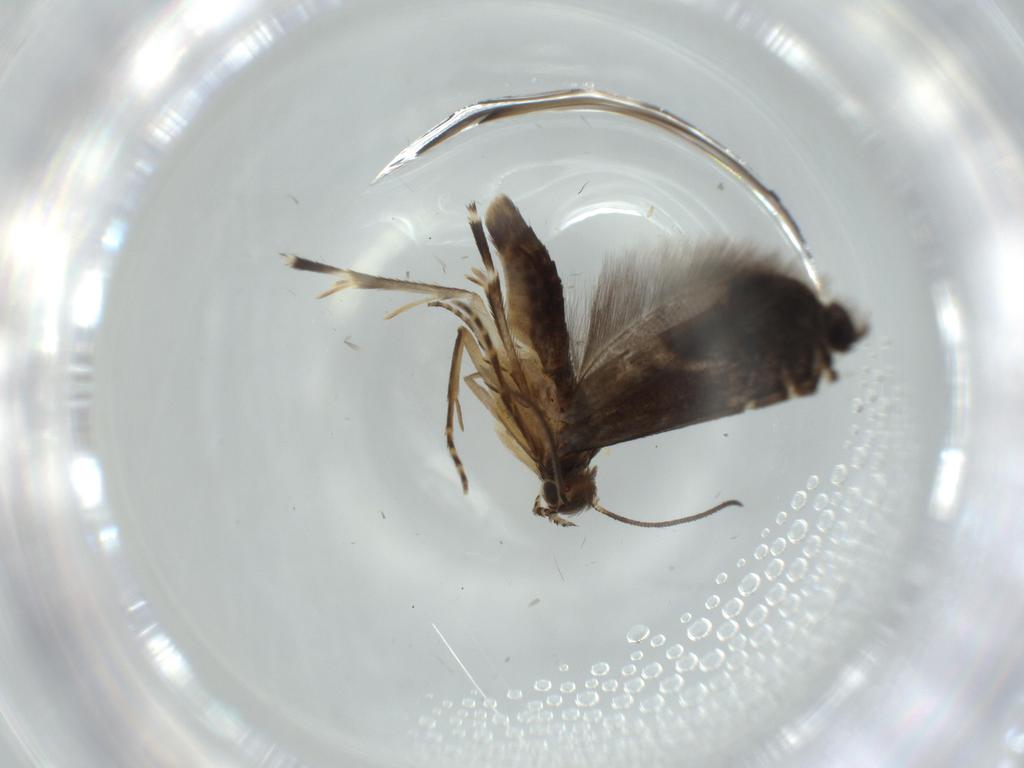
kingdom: Animalia
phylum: Arthropoda
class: Insecta
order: Lepidoptera
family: Glyphipterigidae
